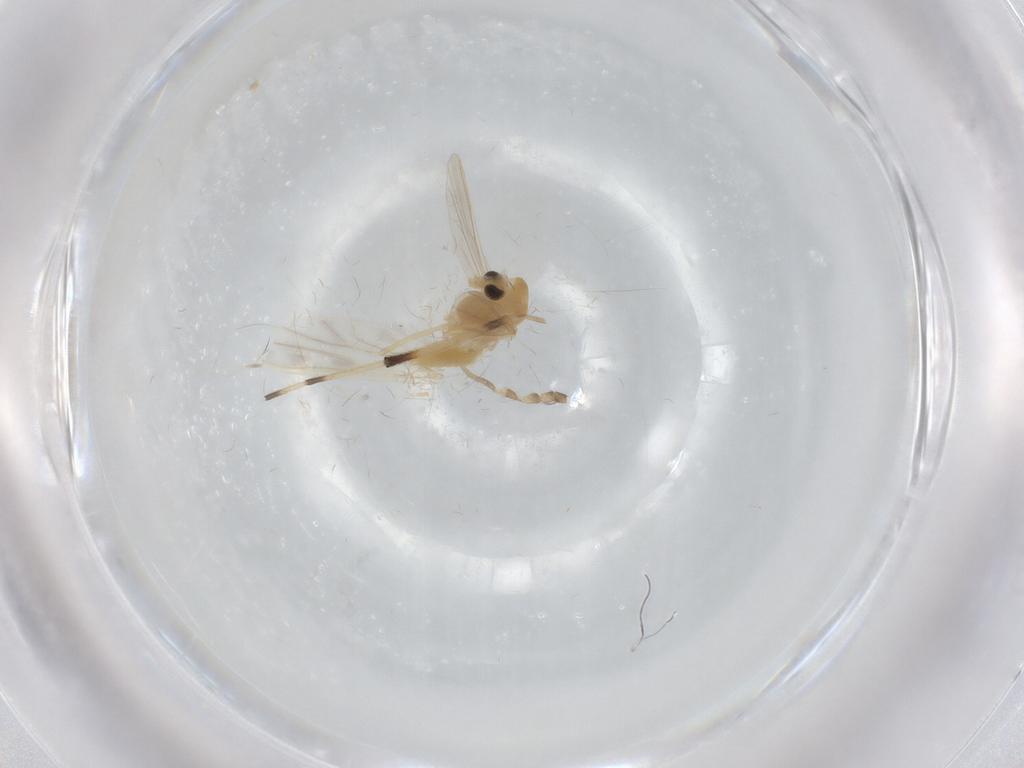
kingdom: Animalia
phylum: Arthropoda
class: Insecta
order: Diptera
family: Chironomidae
